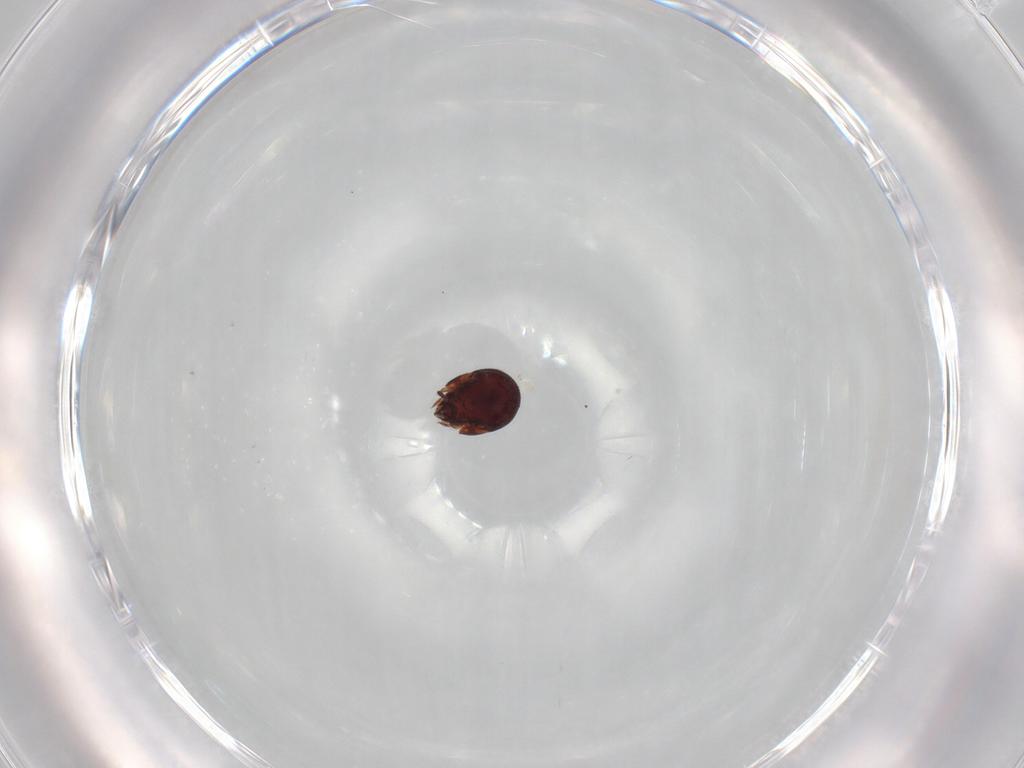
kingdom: Animalia
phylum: Arthropoda
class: Arachnida
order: Sarcoptiformes
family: Humerobatidae
